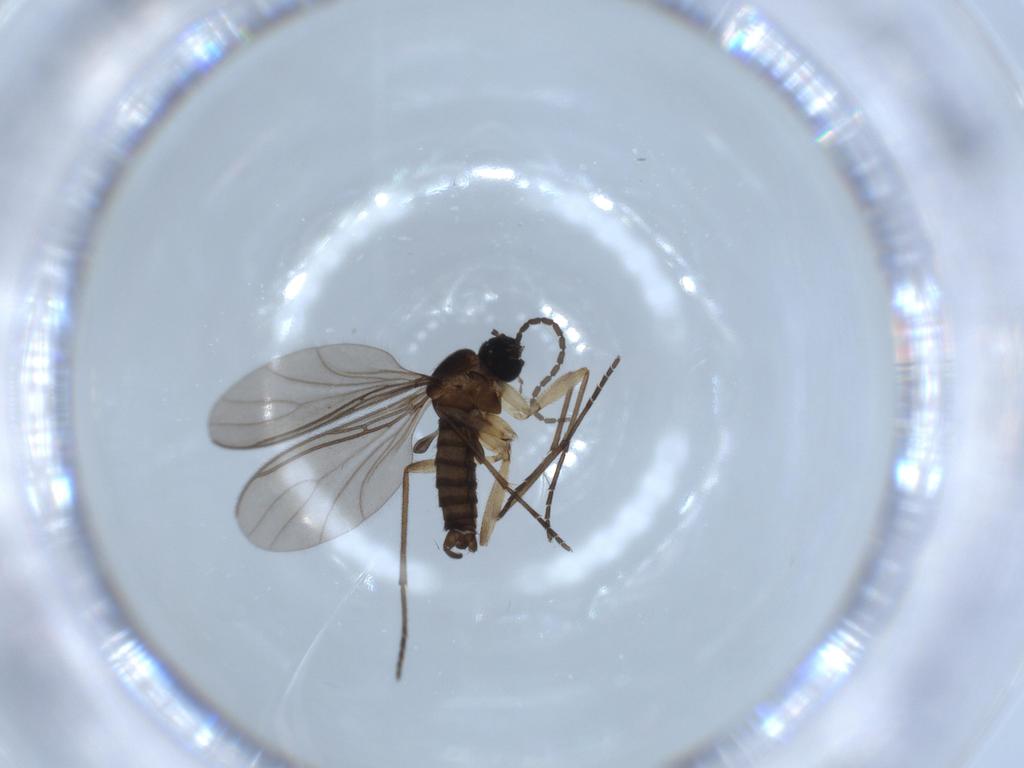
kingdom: Animalia
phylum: Arthropoda
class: Insecta
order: Diptera
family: Sciaridae
